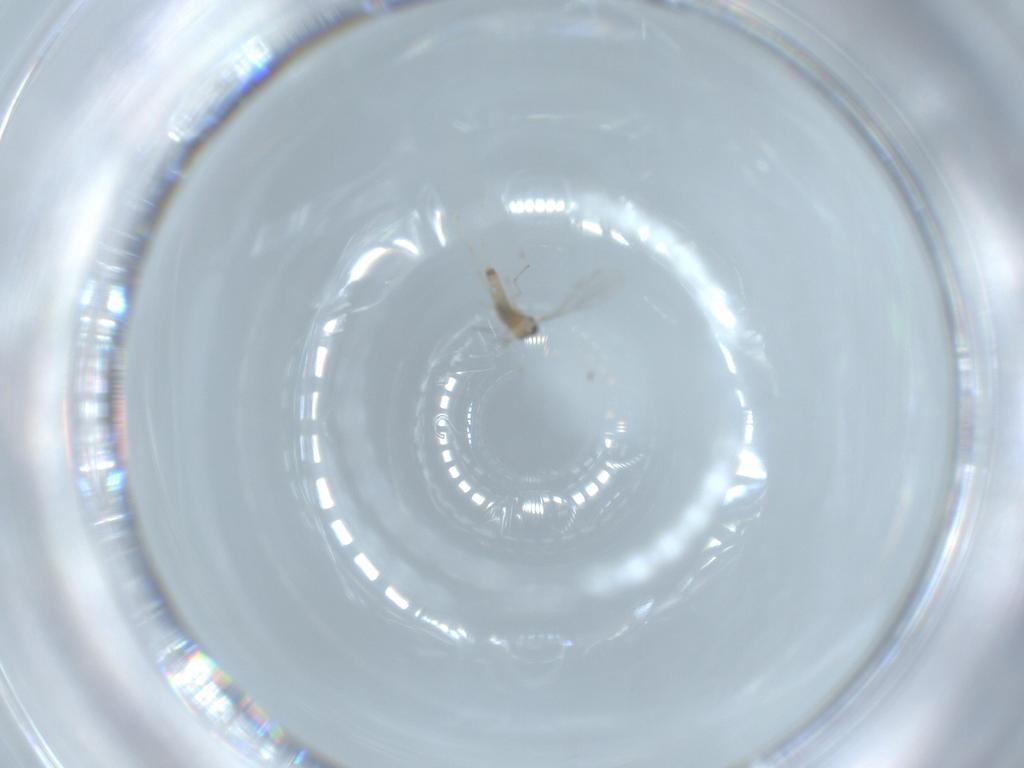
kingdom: Animalia
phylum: Arthropoda
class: Insecta
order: Diptera
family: Cecidomyiidae
